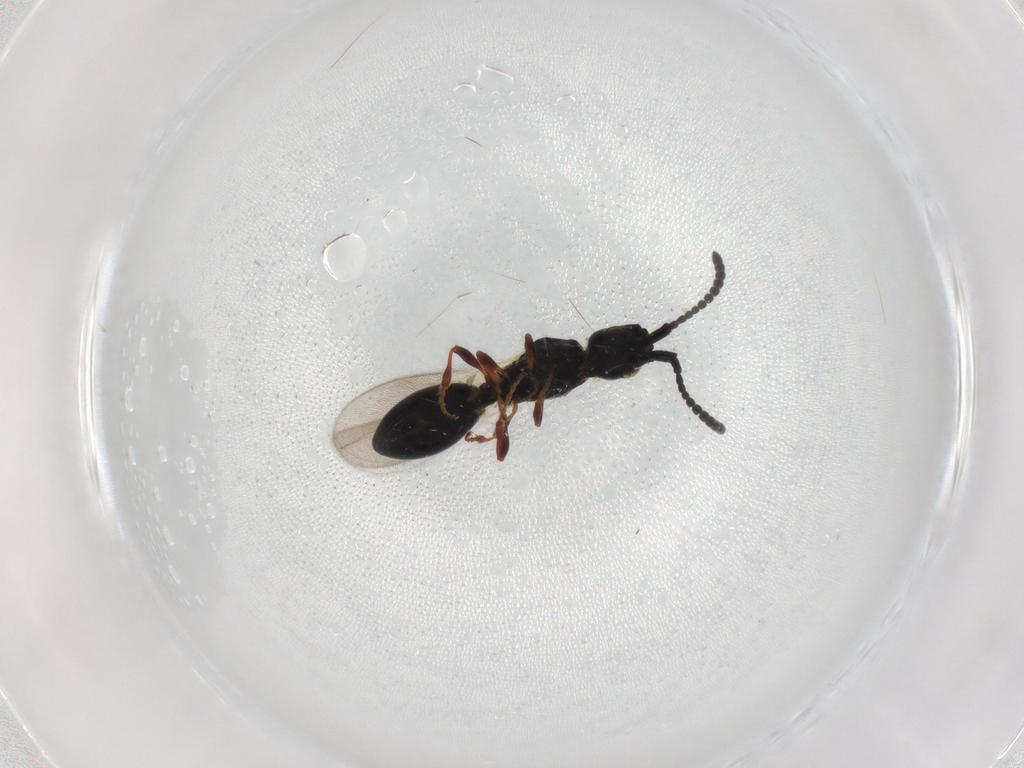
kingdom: Animalia
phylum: Arthropoda
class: Insecta
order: Hymenoptera
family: Diapriidae
